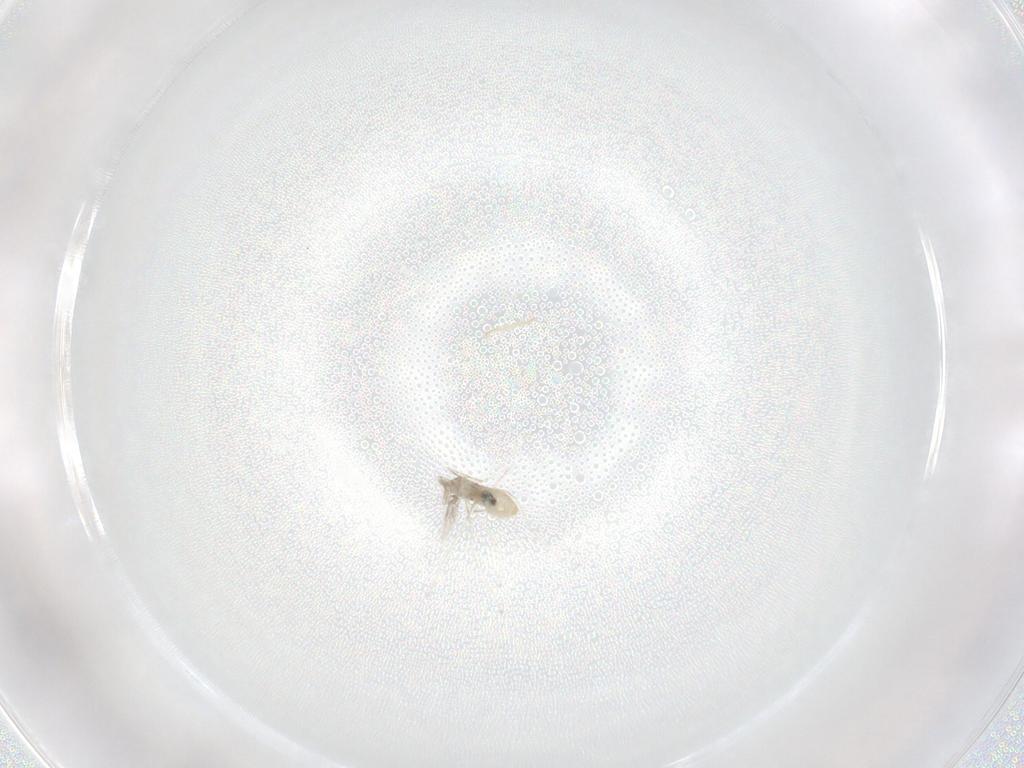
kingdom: Animalia
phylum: Arthropoda
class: Insecta
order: Diptera
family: Cecidomyiidae
